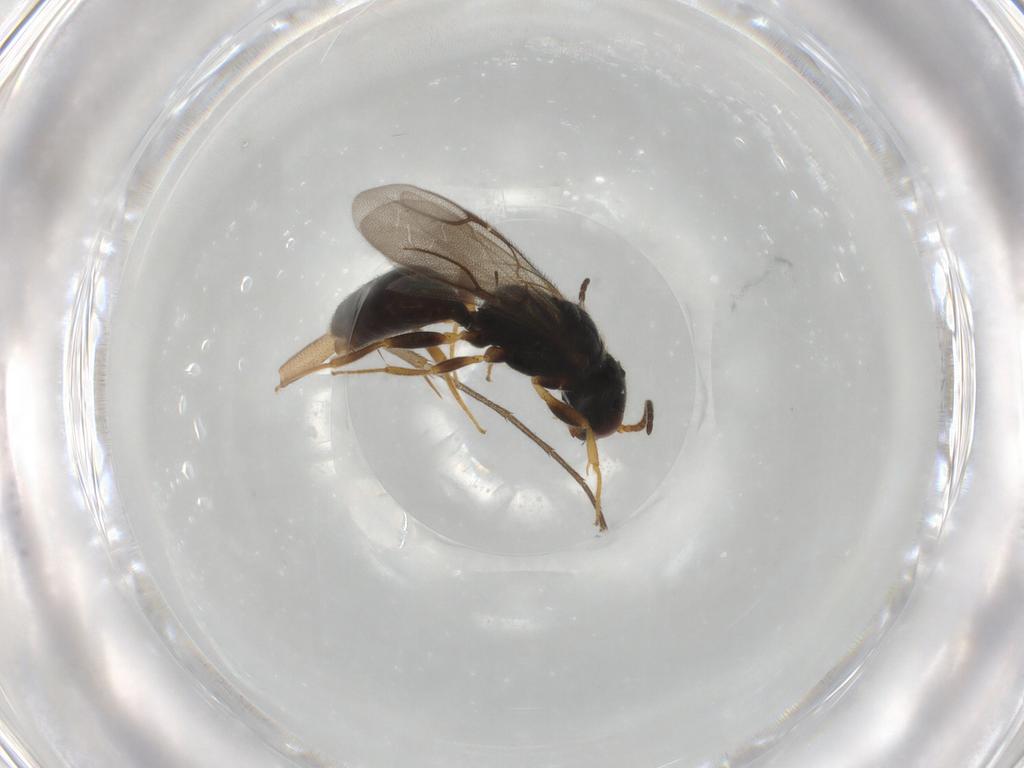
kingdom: Animalia
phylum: Arthropoda
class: Insecta
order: Hymenoptera
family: Bethylidae
